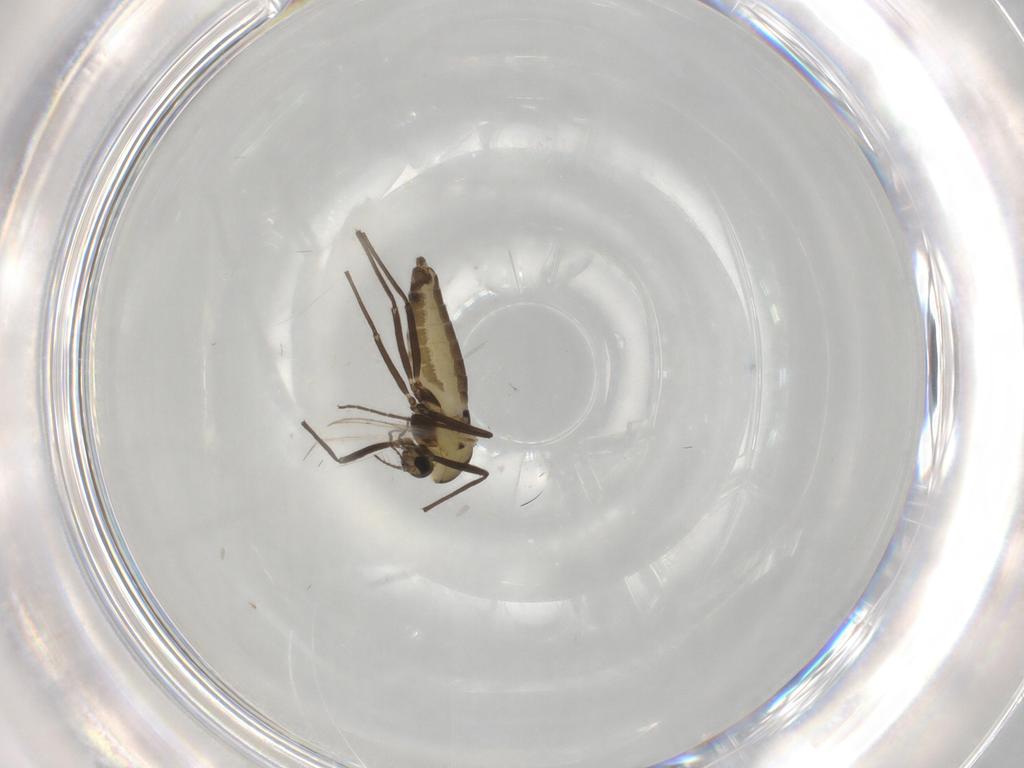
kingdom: Animalia
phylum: Arthropoda
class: Insecta
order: Diptera
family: Chironomidae
